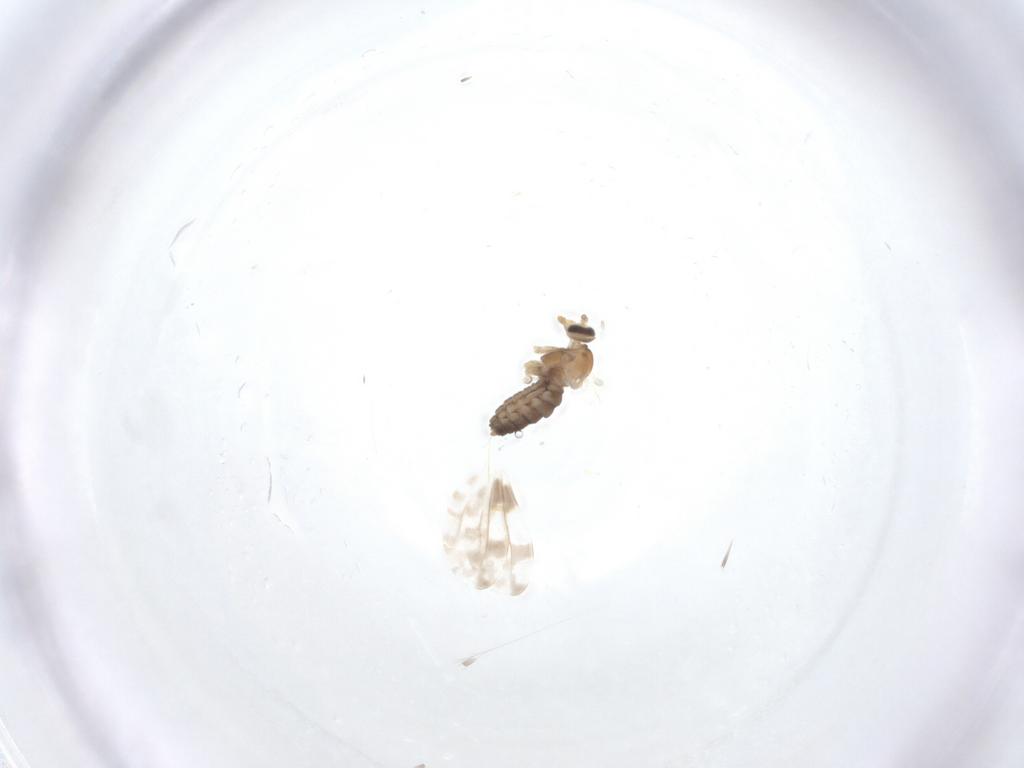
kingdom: Animalia
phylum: Arthropoda
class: Insecta
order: Diptera
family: Cecidomyiidae
